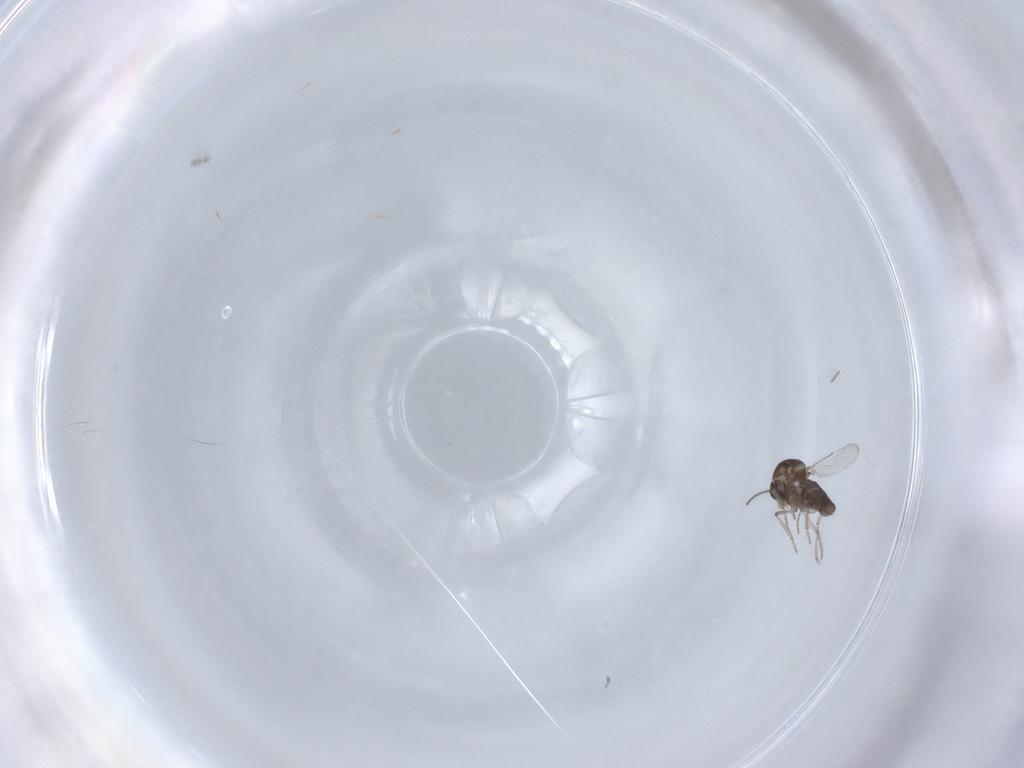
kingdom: Animalia
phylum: Arthropoda
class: Insecta
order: Diptera
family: Ceratopogonidae
